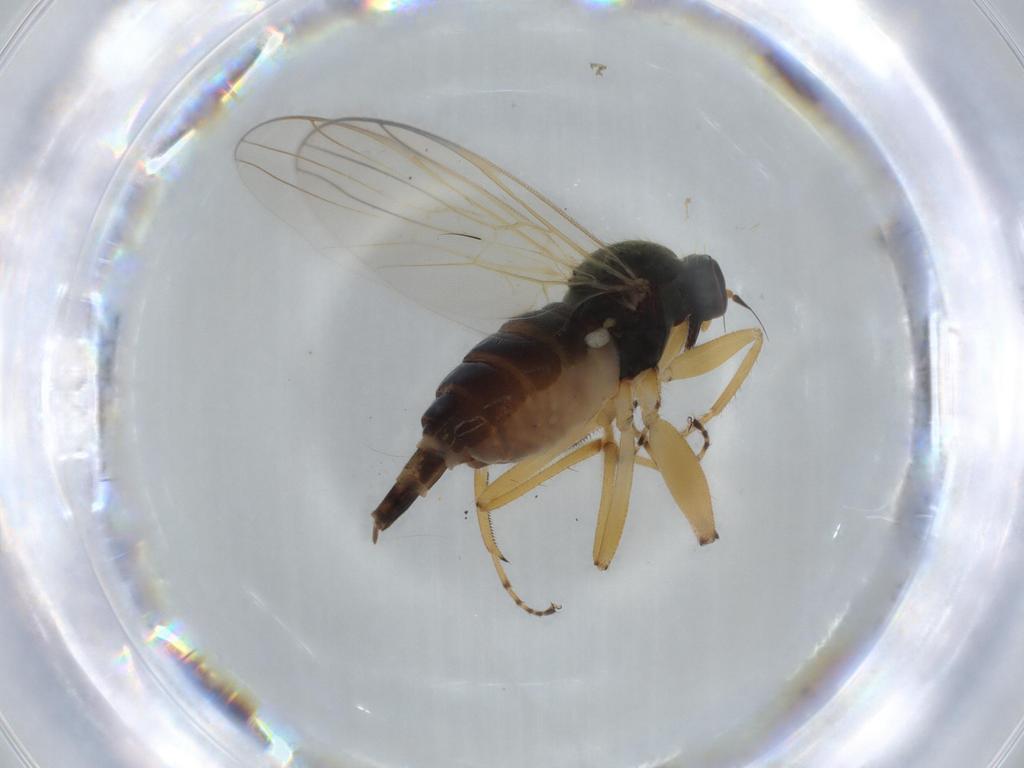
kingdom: Animalia
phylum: Arthropoda
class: Insecta
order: Diptera
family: Hybotidae
